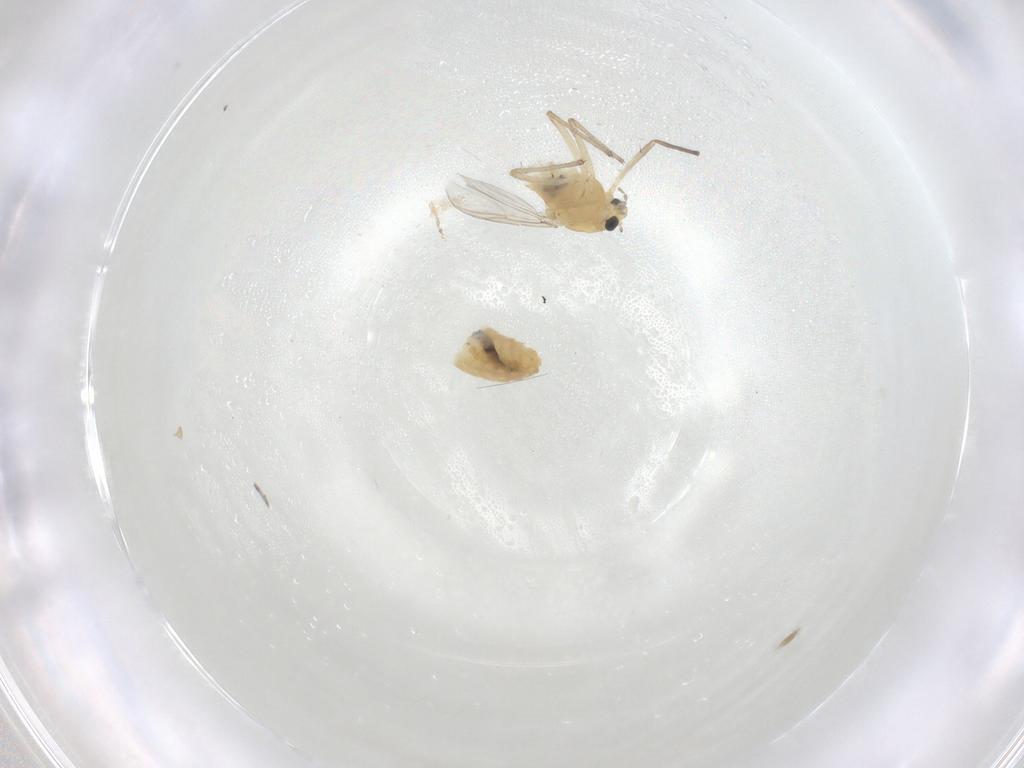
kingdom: Animalia
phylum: Arthropoda
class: Insecta
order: Diptera
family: Chironomidae
